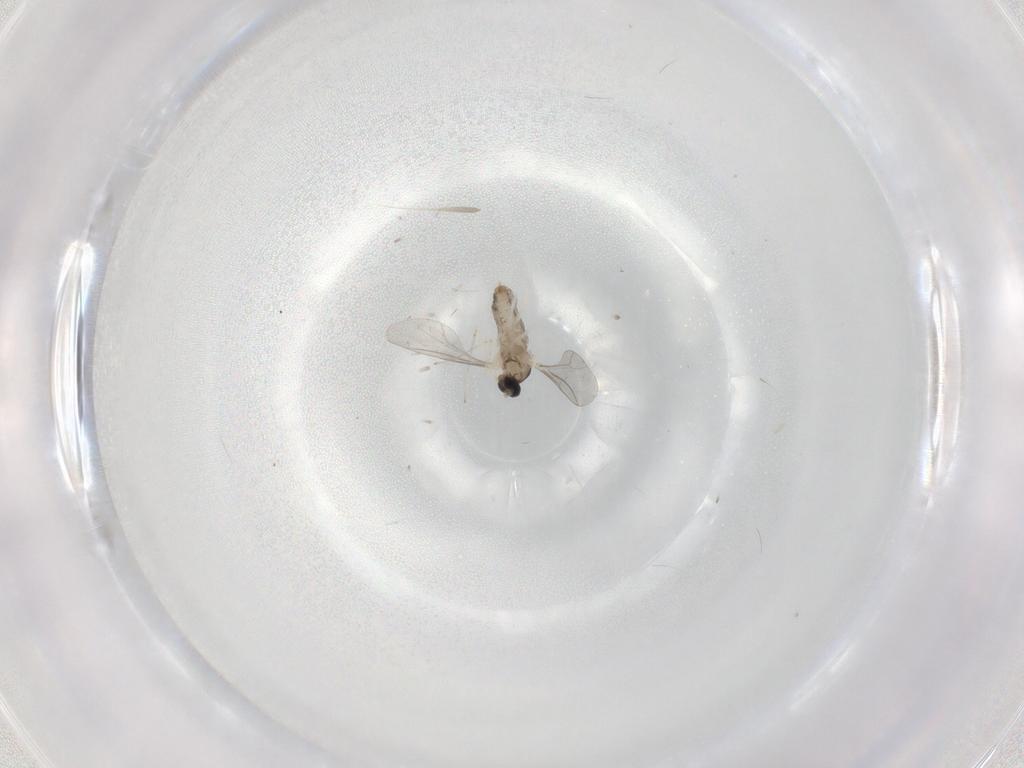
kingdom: Animalia
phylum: Arthropoda
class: Insecta
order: Diptera
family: Cecidomyiidae
